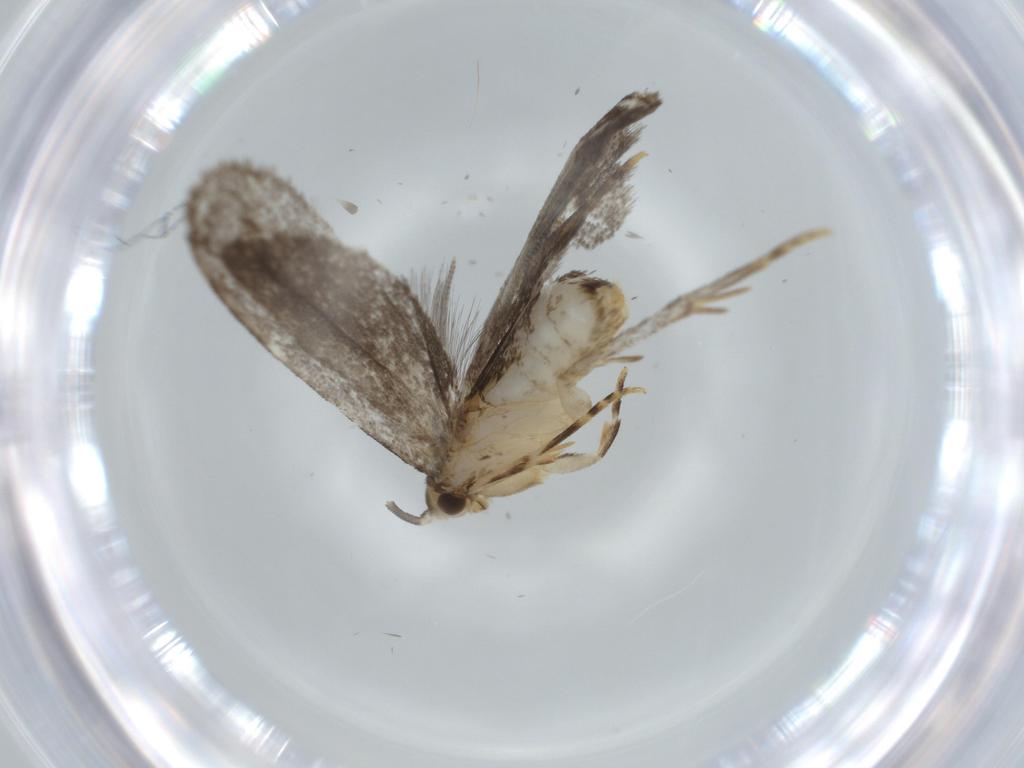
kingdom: Animalia
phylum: Arthropoda
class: Insecta
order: Lepidoptera
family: Dryadaulidae
